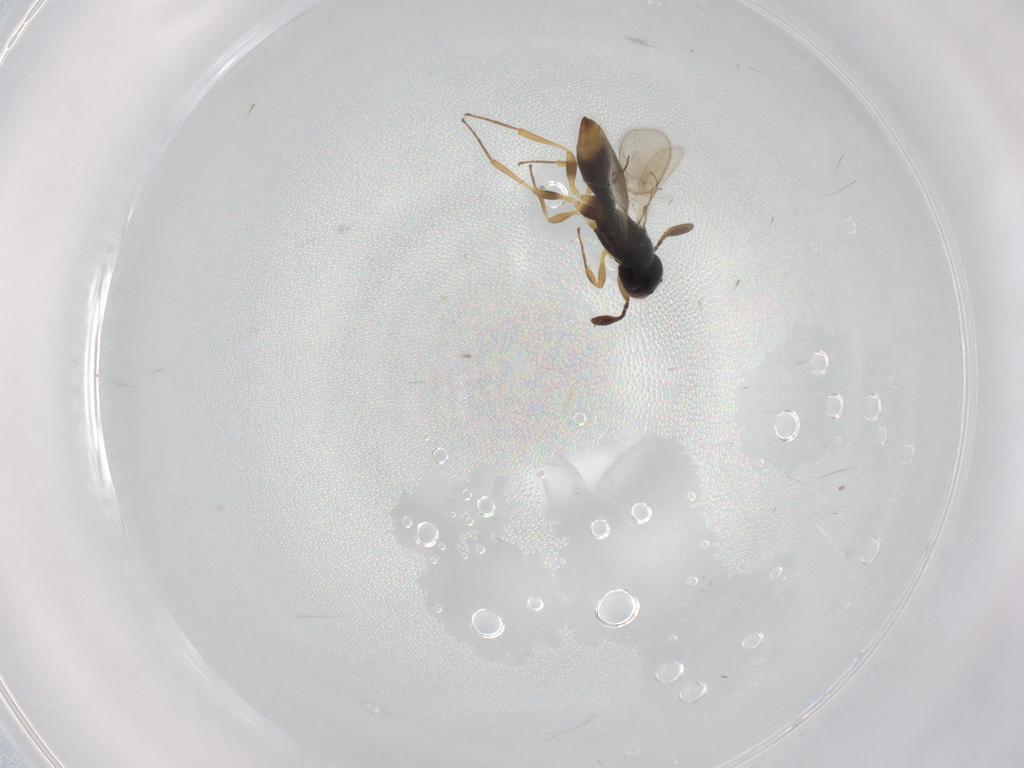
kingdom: Animalia
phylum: Arthropoda
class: Insecta
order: Hymenoptera
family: Scelionidae
